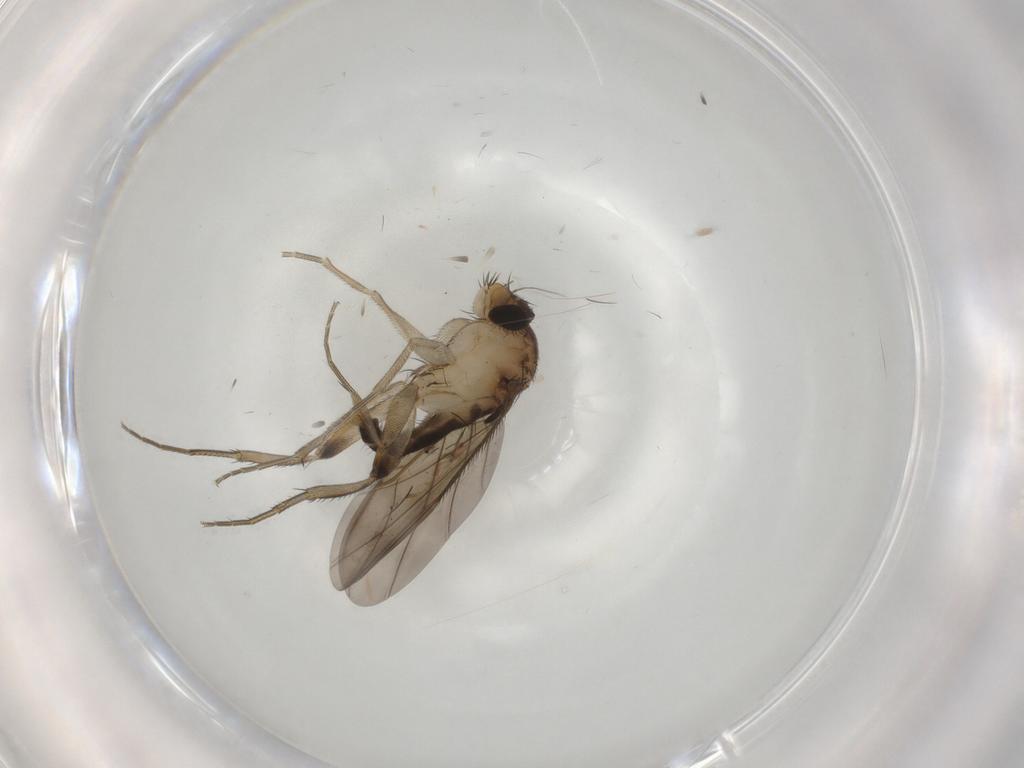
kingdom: Animalia
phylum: Arthropoda
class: Insecta
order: Diptera
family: Phoridae
